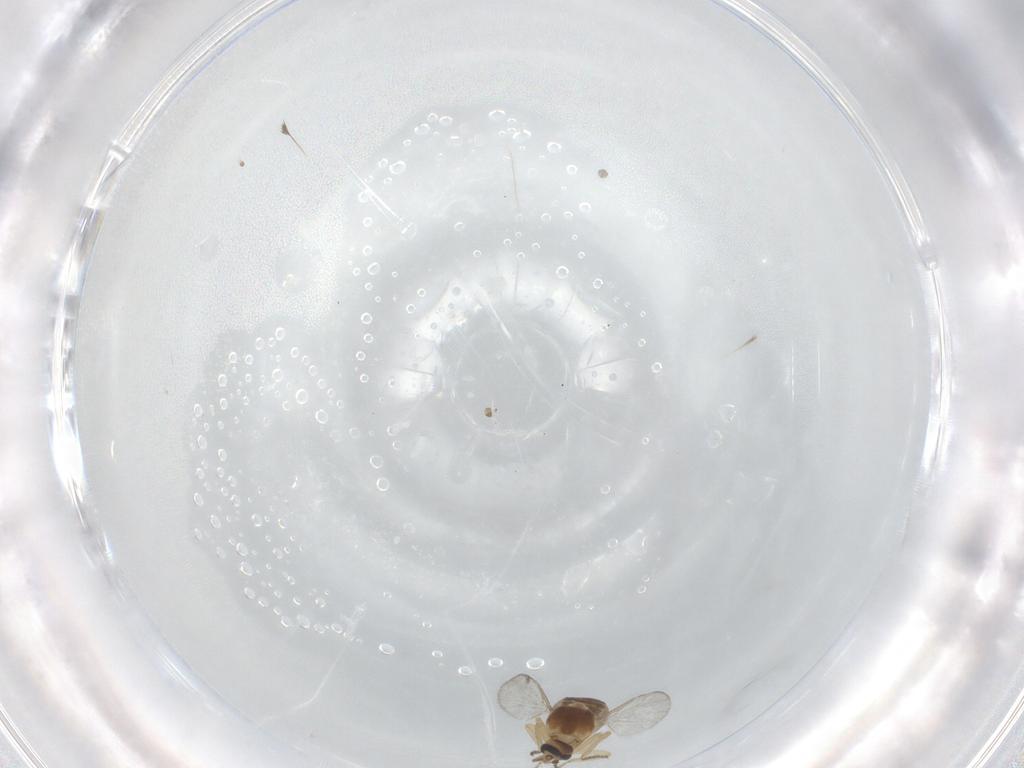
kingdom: Animalia
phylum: Arthropoda
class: Insecta
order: Diptera
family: Ceratopogonidae
